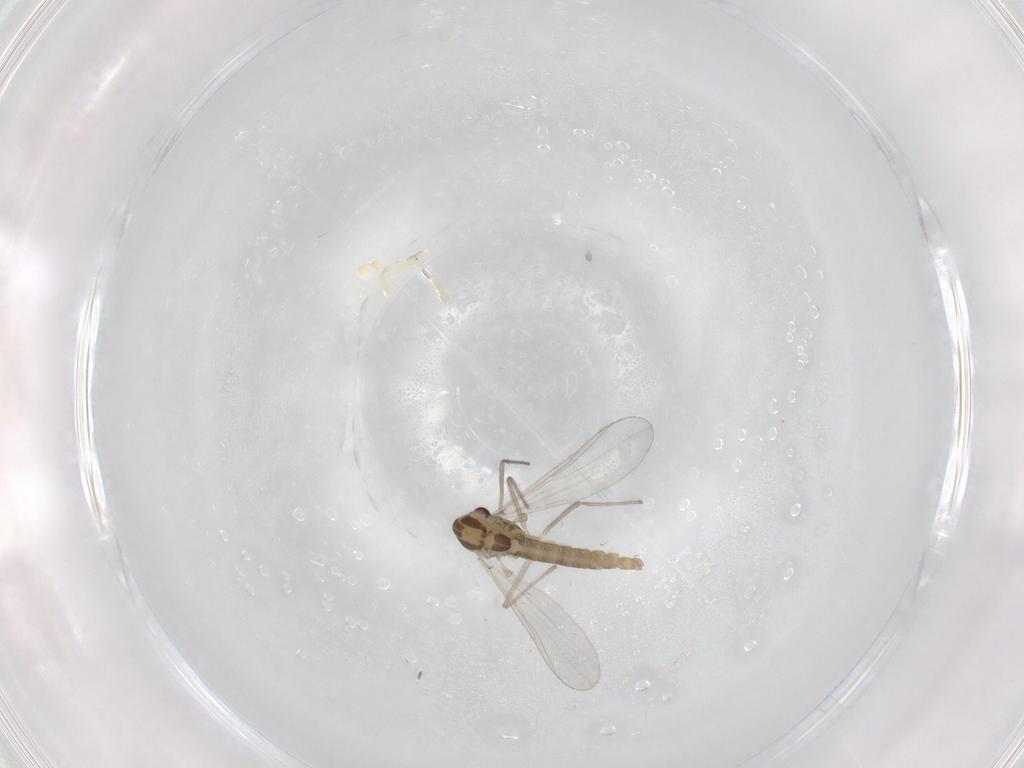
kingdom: Animalia
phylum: Arthropoda
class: Insecta
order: Diptera
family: Chironomidae
